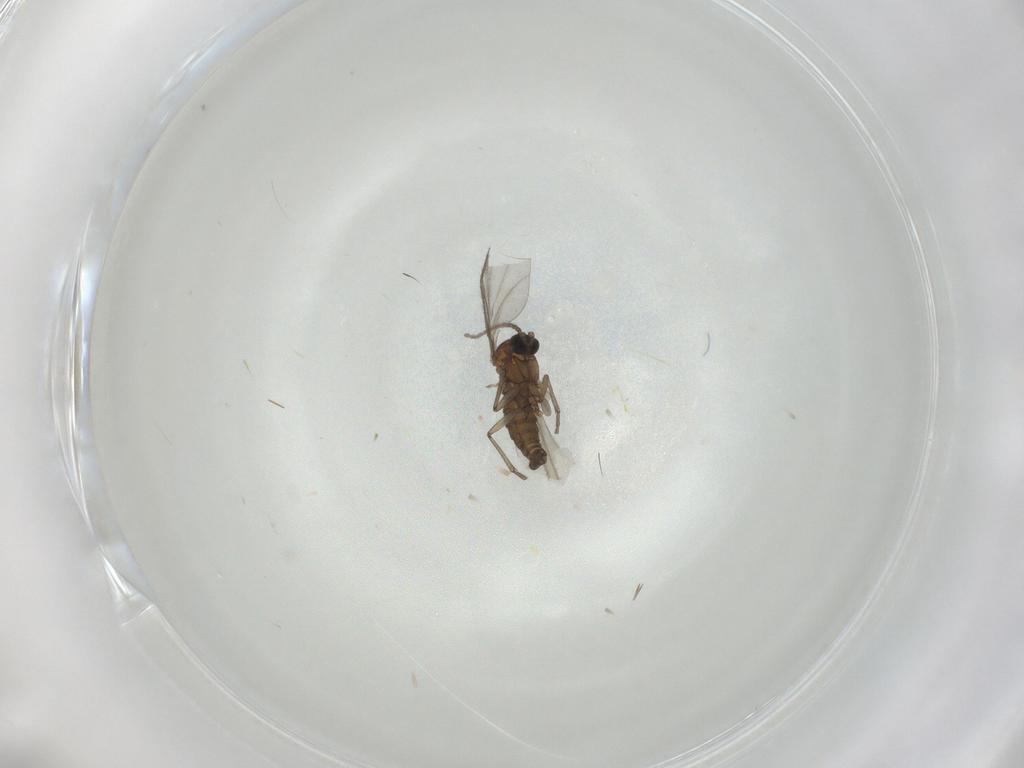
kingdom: Animalia
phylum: Arthropoda
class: Insecta
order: Diptera
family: Sciaridae
